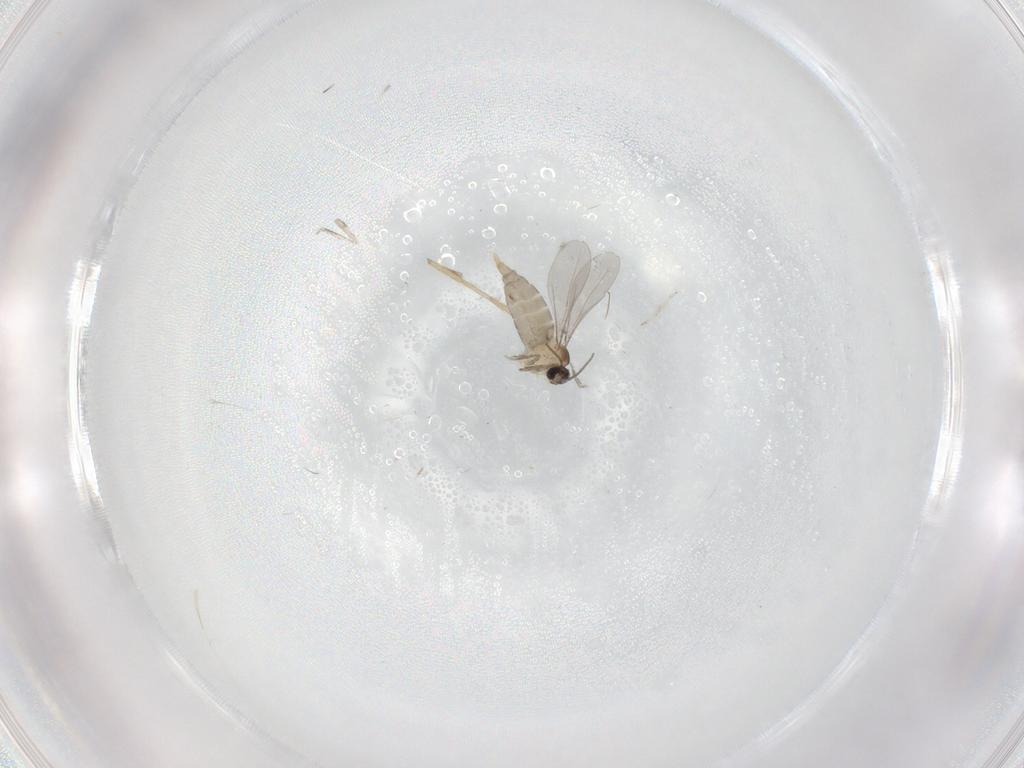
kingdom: Animalia
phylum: Arthropoda
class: Insecta
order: Diptera
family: Cecidomyiidae
